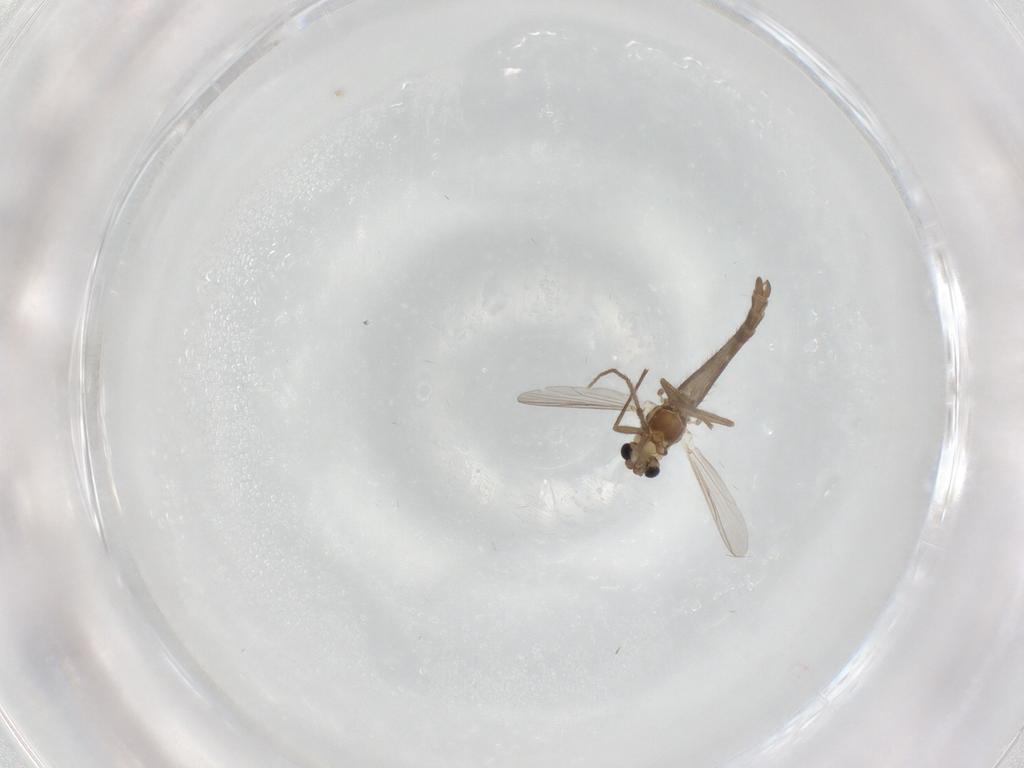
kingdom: Animalia
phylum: Arthropoda
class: Insecta
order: Diptera
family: Chironomidae
